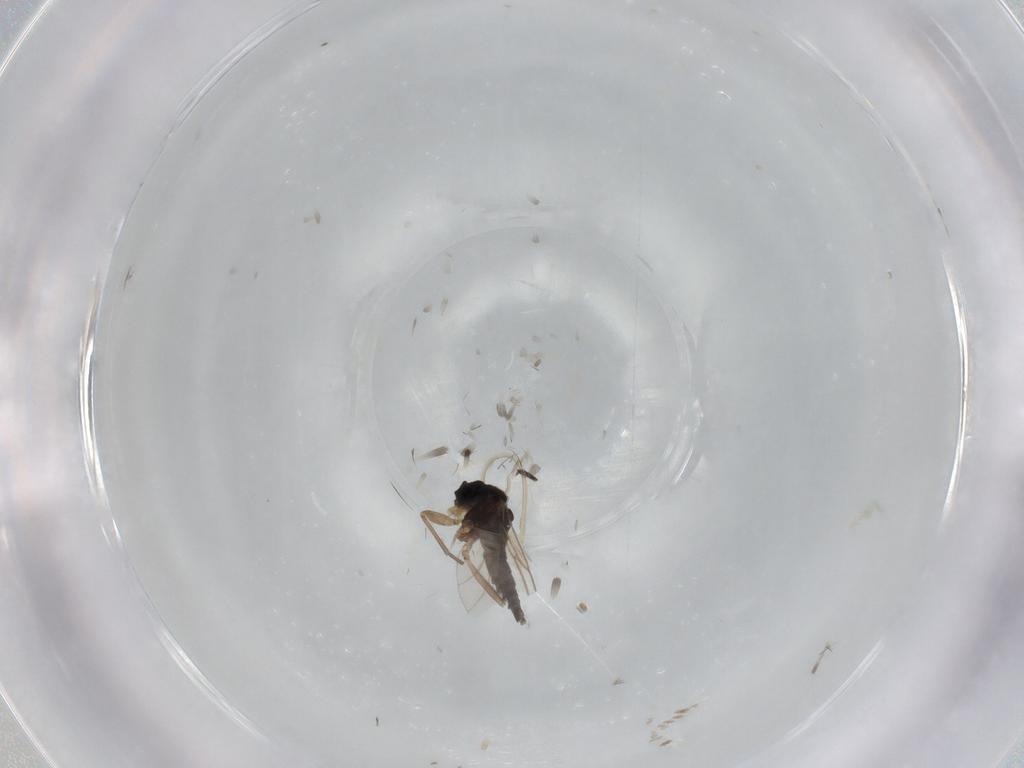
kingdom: Animalia
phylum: Arthropoda
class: Insecta
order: Diptera
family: Sciaridae
